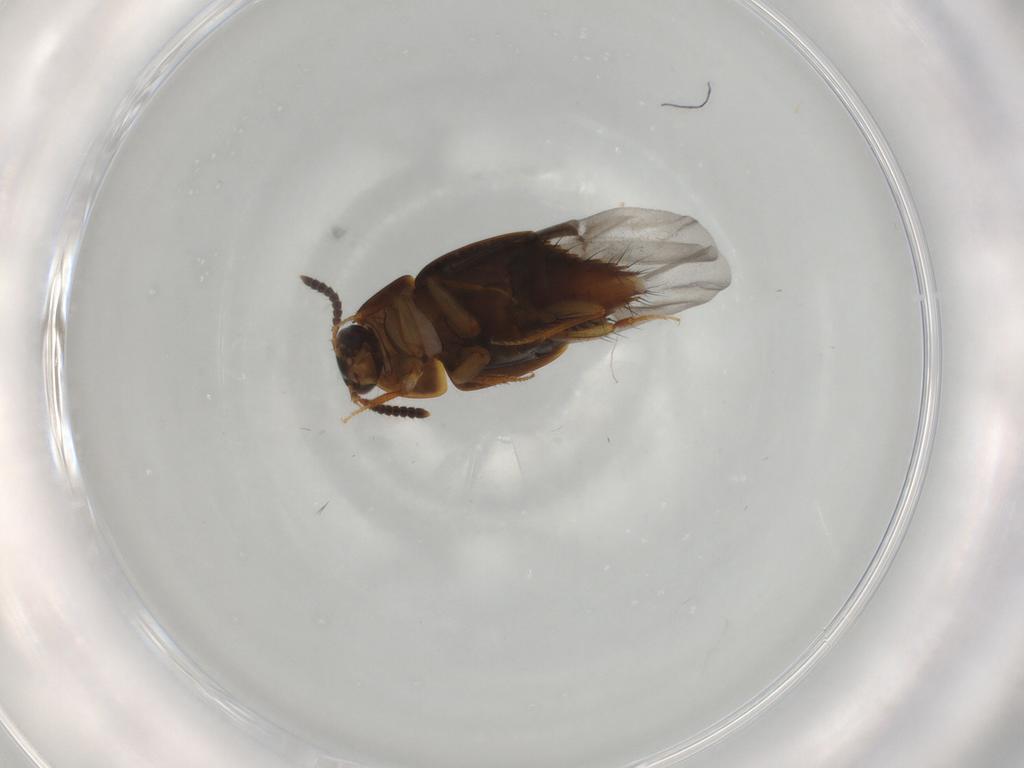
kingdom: Animalia
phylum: Arthropoda
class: Insecta
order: Coleoptera
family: Staphylinidae
